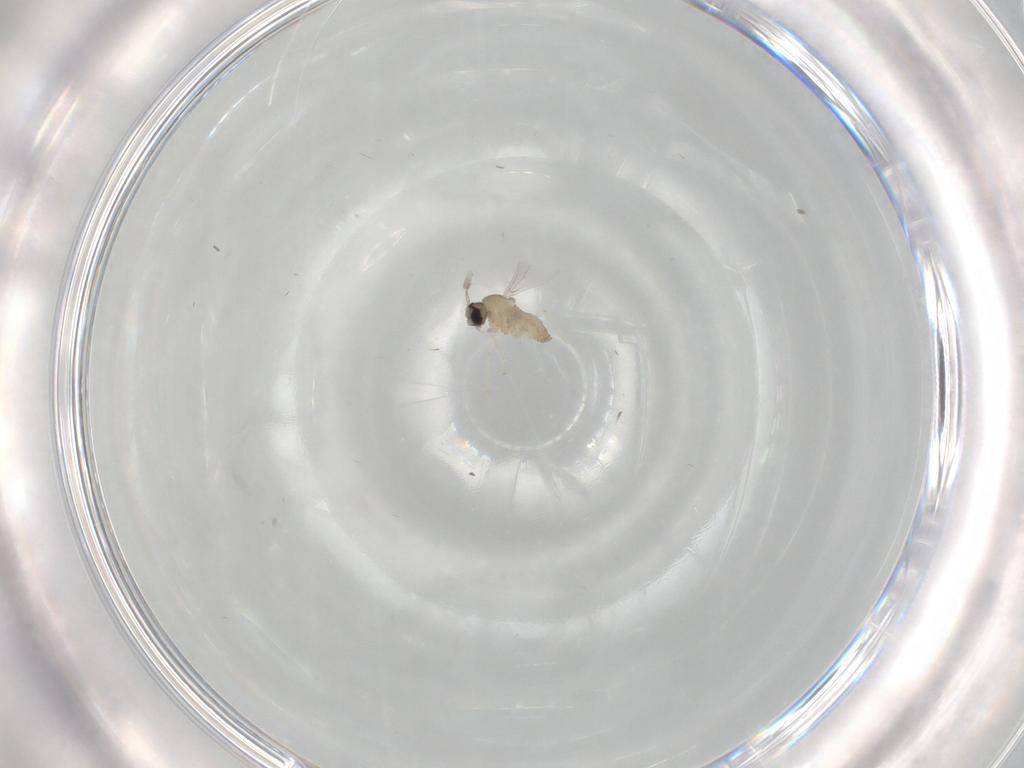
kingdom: Animalia
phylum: Arthropoda
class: Insecta
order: Diptera
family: Cecidomyiidae
